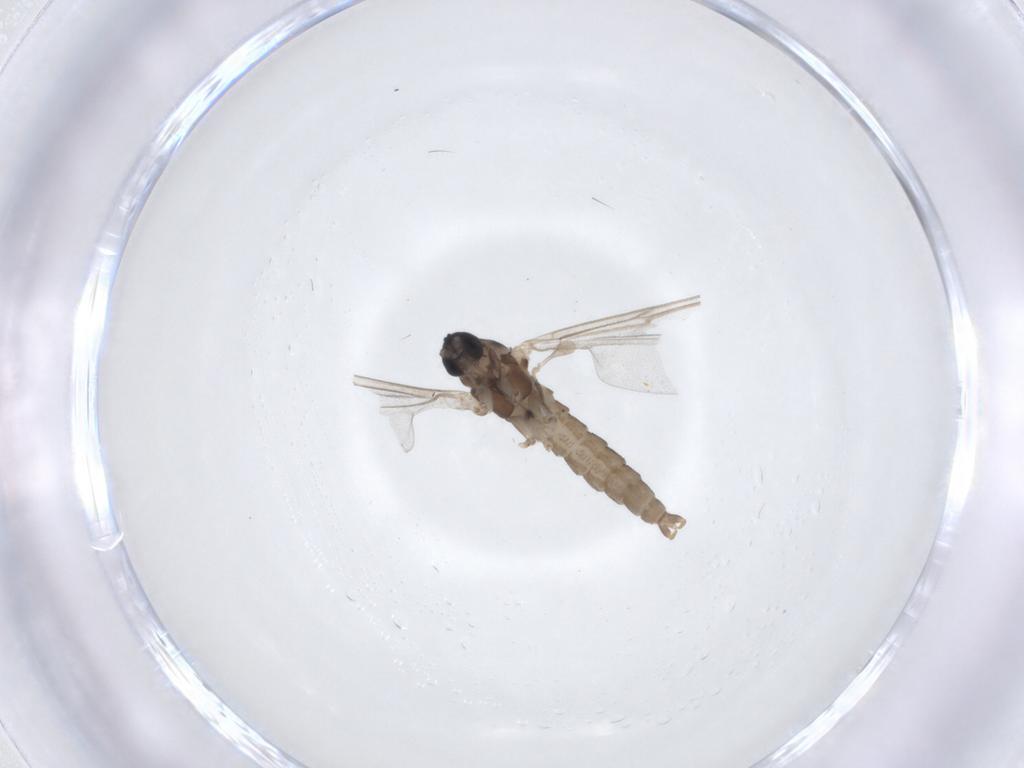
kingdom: Animalia
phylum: Arthropoda
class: Insecta
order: Diptera
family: Cecidomyiidae
